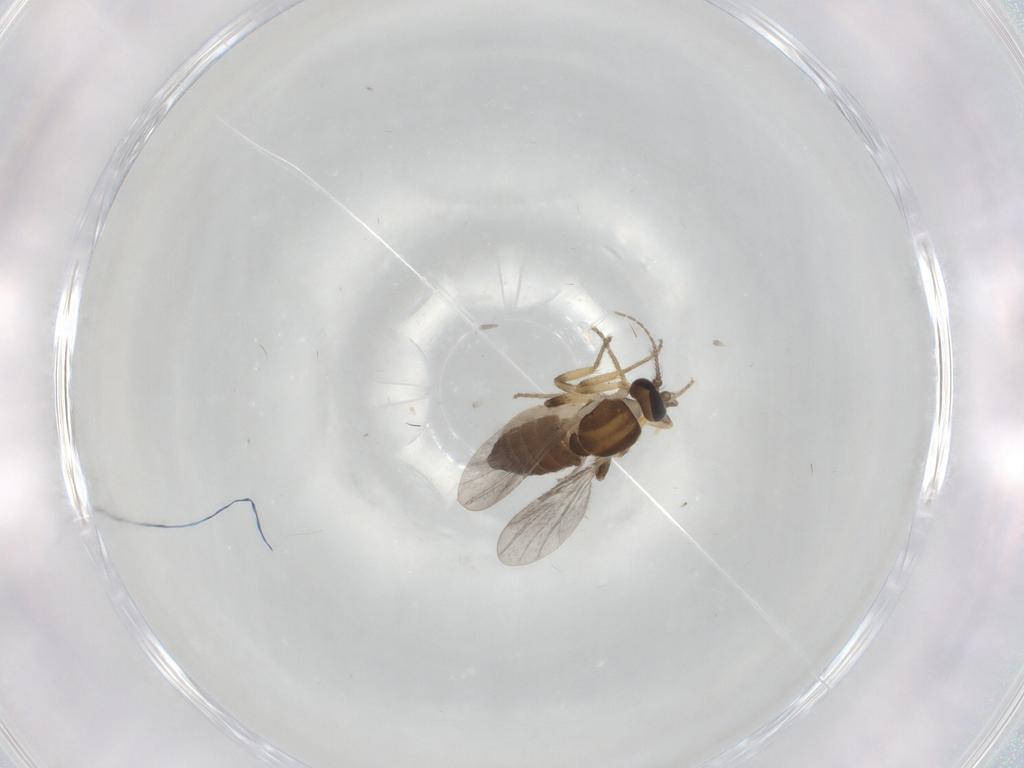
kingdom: Animalia
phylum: Arthropoda
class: Insecta
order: Diptera
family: Ceratopogonidae
